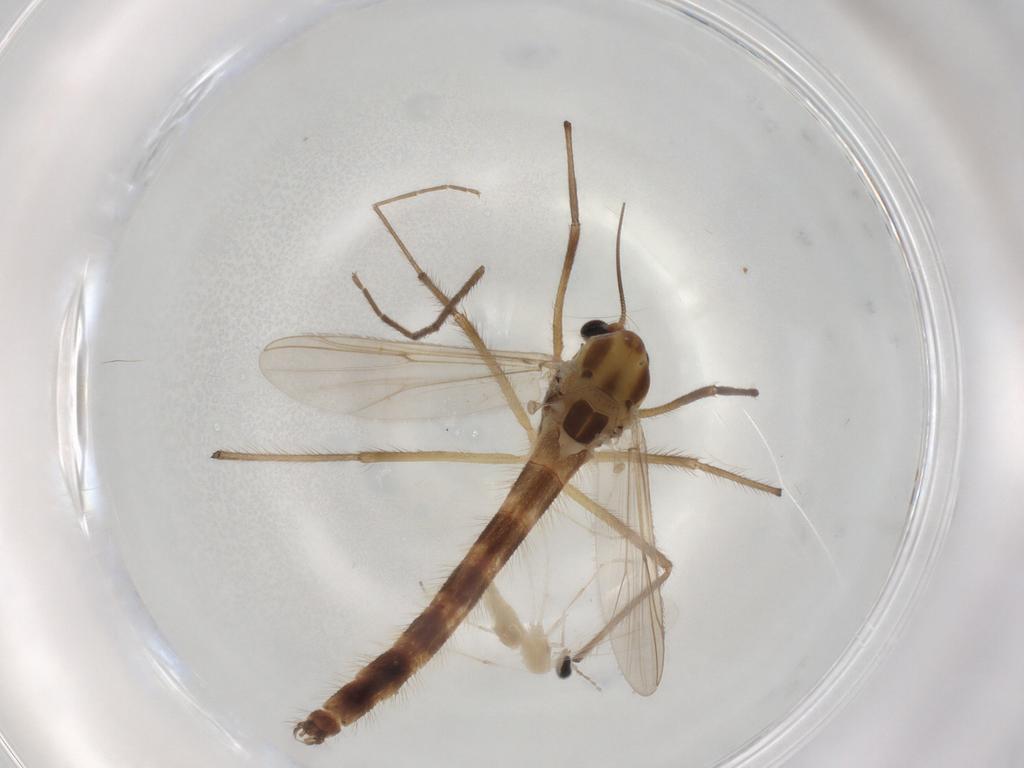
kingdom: Animalia
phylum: Arthropoda
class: Insecta
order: Diptera
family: Chironomidae
